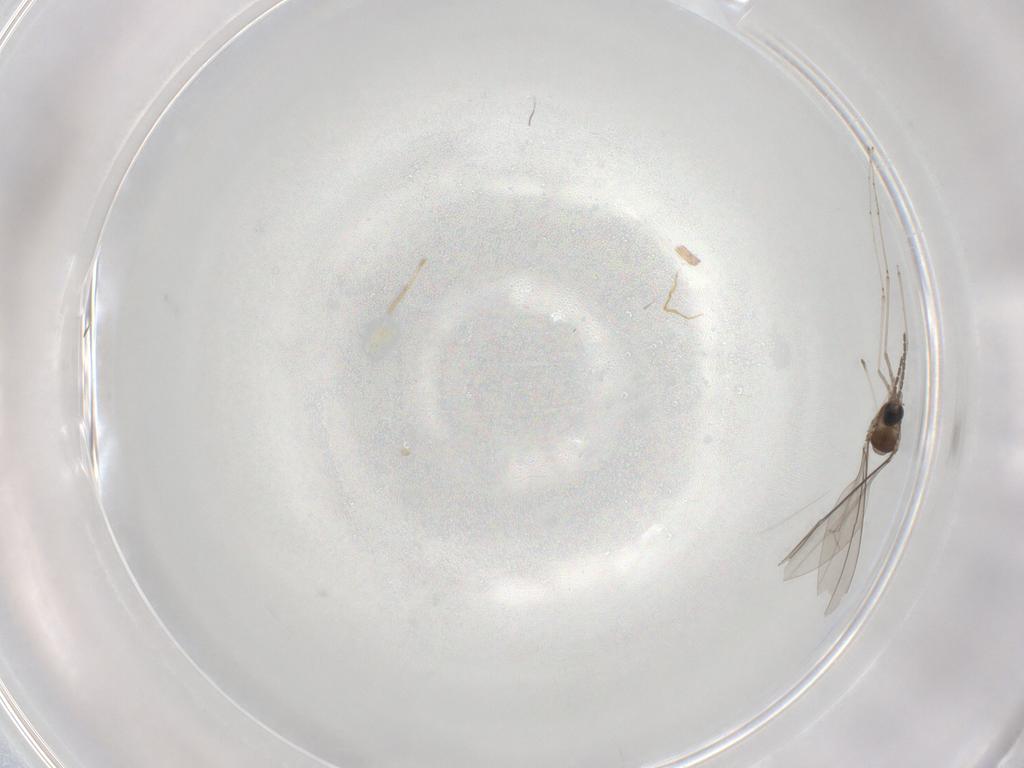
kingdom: Animalia
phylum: Arthropoda
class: Insecta
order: Diptera
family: Cecidomyiidae
